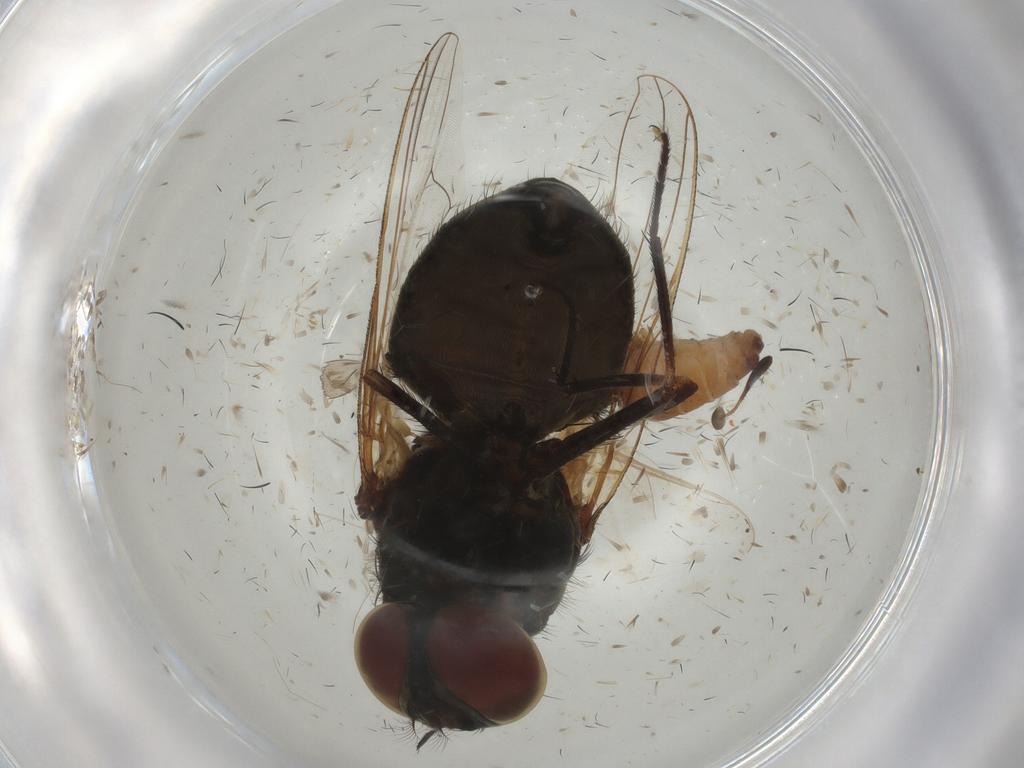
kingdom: Animalia
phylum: Arthropoda
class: Insecta
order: Diptera
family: Muscidae
